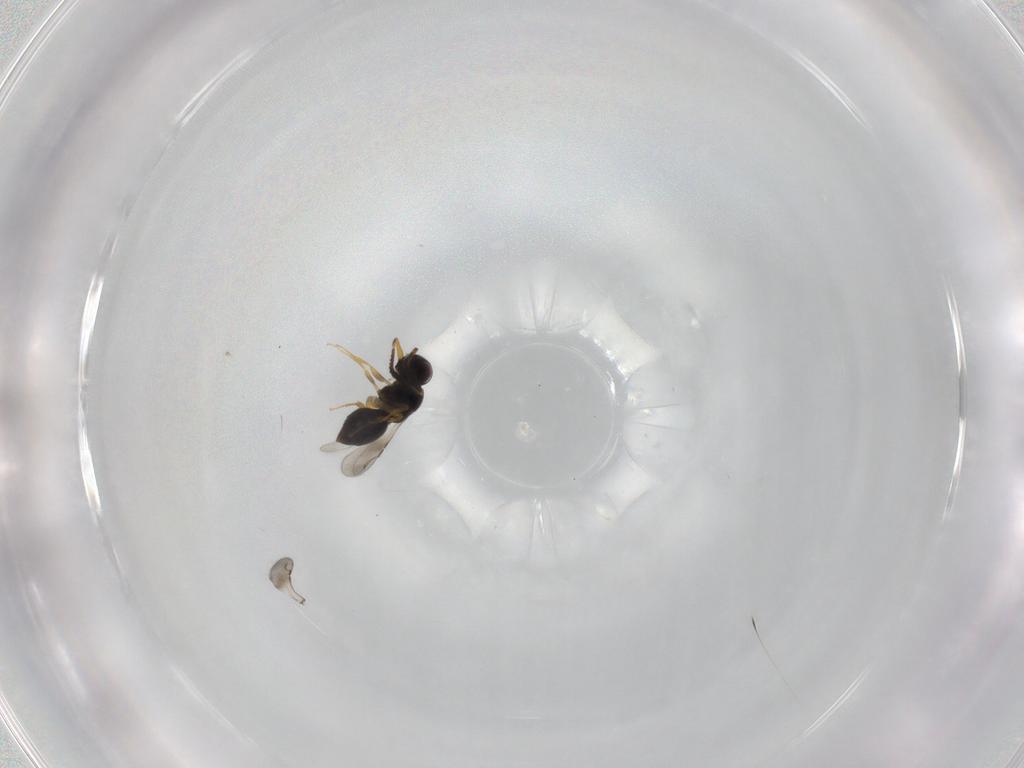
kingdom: Animalia
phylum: Arthropoda
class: Insecta
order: Hymenoptera
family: Ceraphronidae
